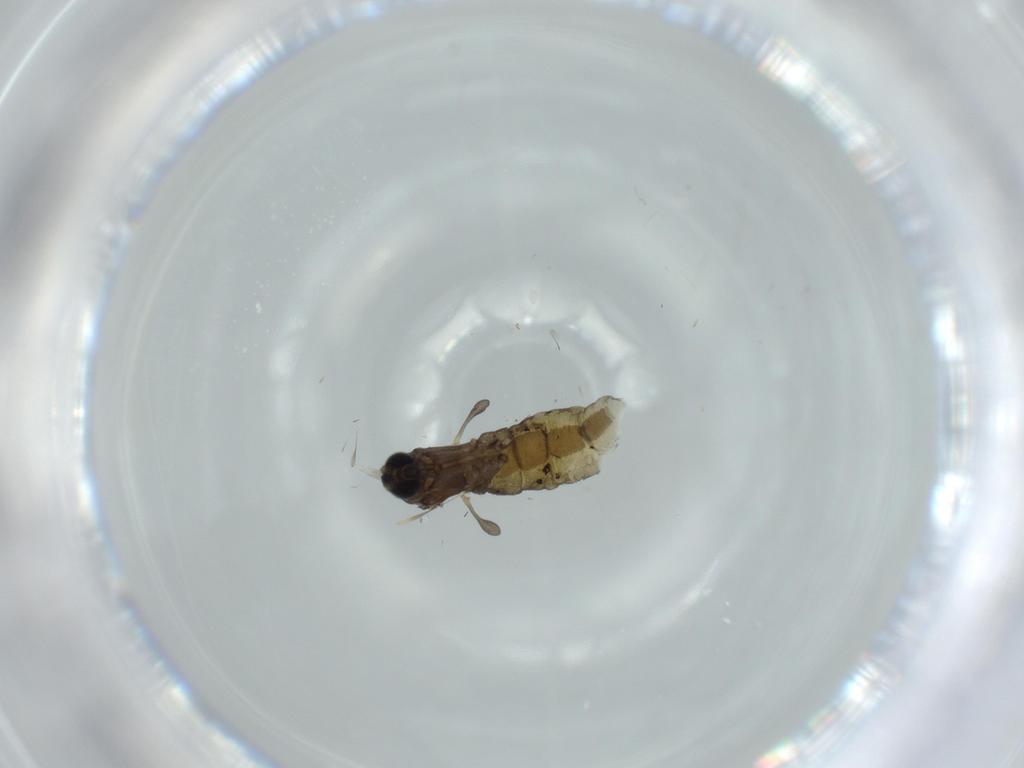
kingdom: Animalia
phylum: Arthropoda
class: Insecta
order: Diptera
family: Sciaridae
